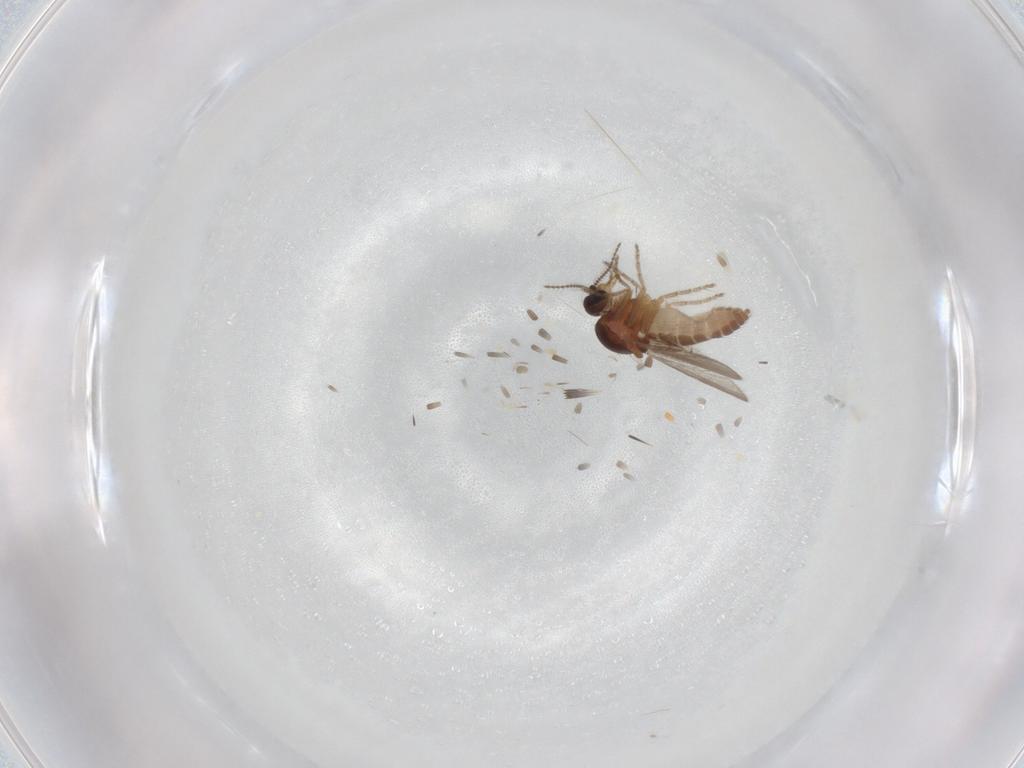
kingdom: Animalia
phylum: Arthropoda
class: Insecta
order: Diptera
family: Ceratopogonidae
